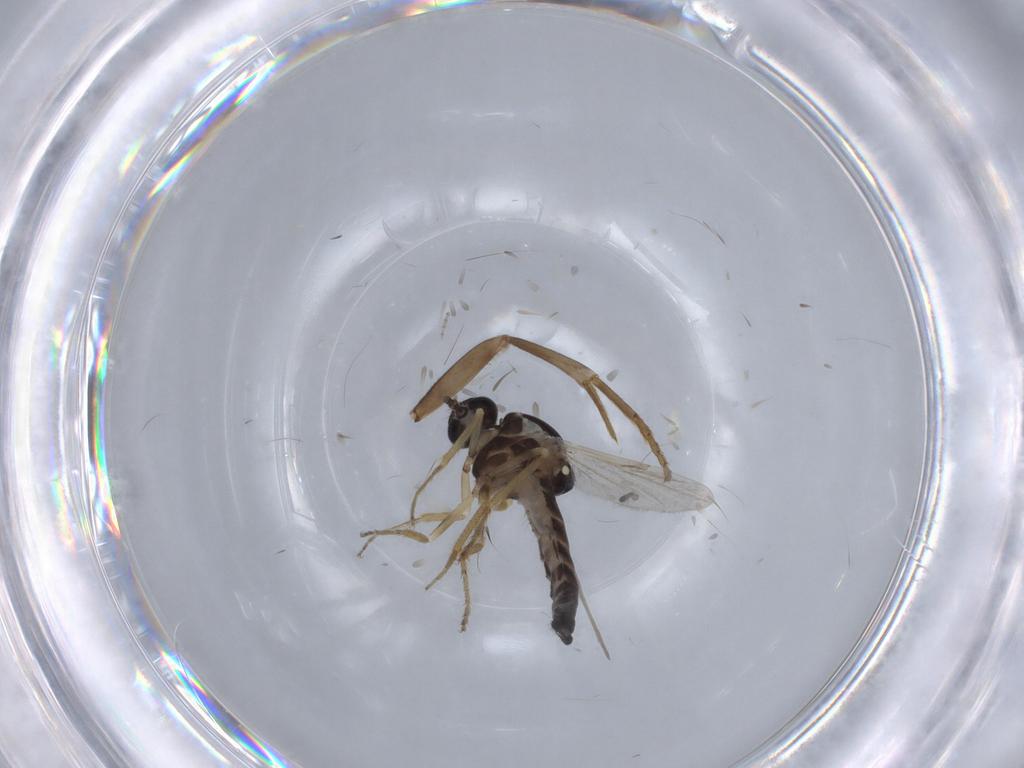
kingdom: Animalia
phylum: Arthropoda
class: Insecta
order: Diptera
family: Ceratopogonidae
